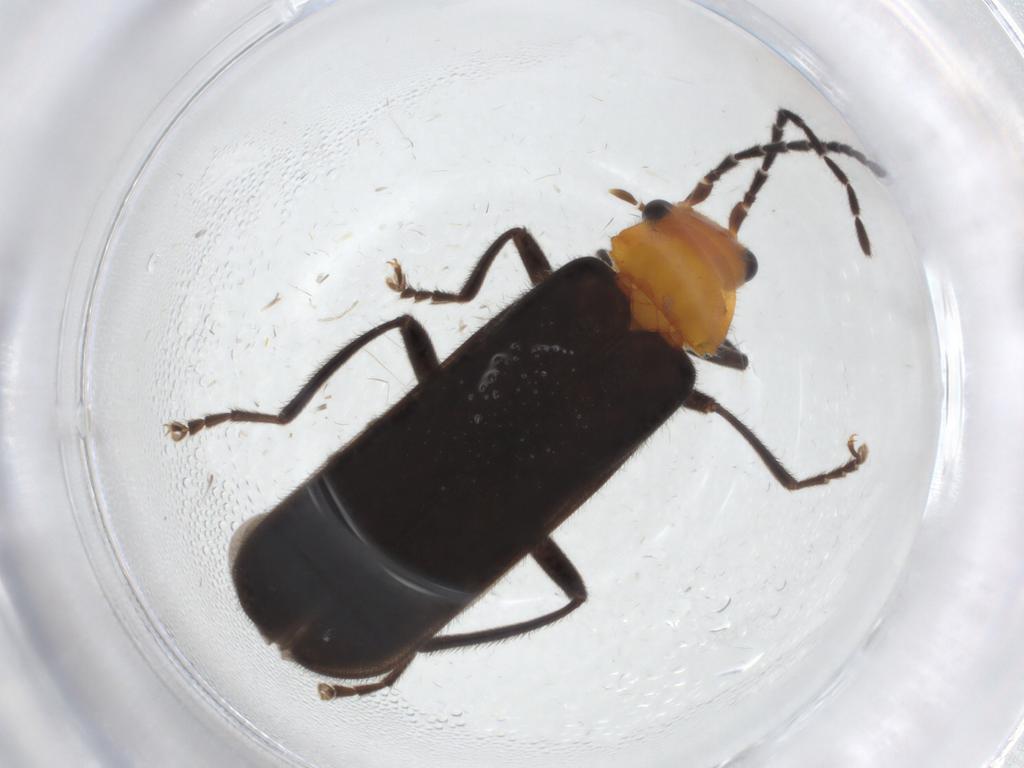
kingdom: Animalia
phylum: Arthropoda
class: Insecta
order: Coleoptera
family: Cantharidae
